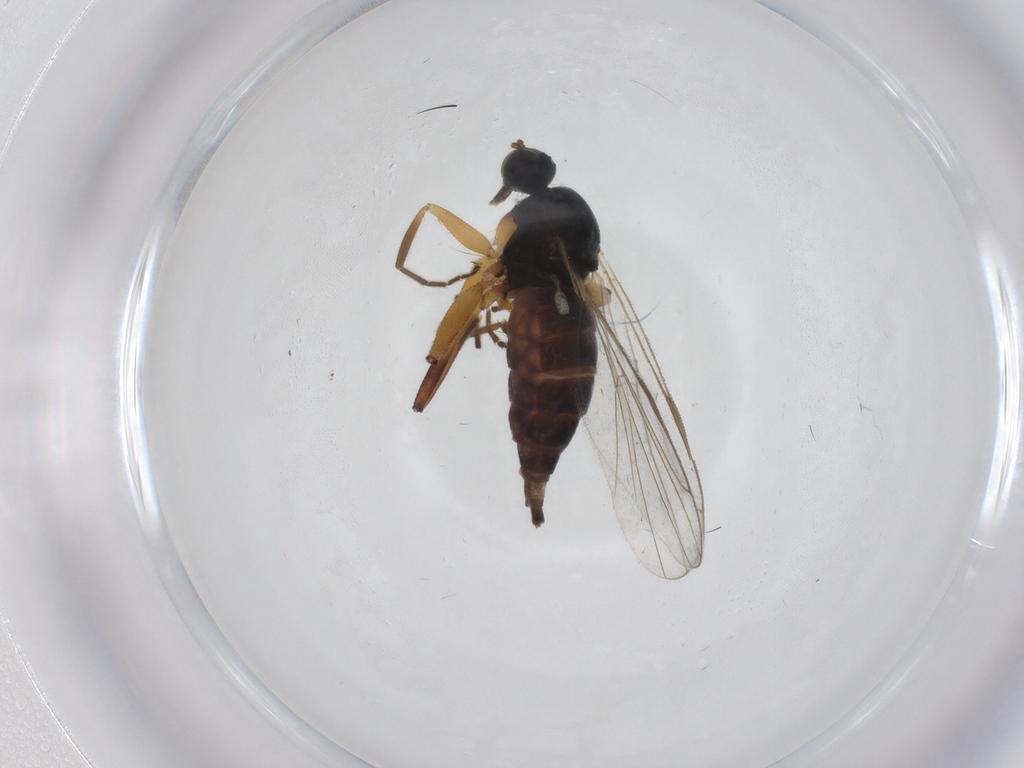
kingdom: Animalia
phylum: Arthropoda
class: Insecta
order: Diptera
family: Hybotidae
